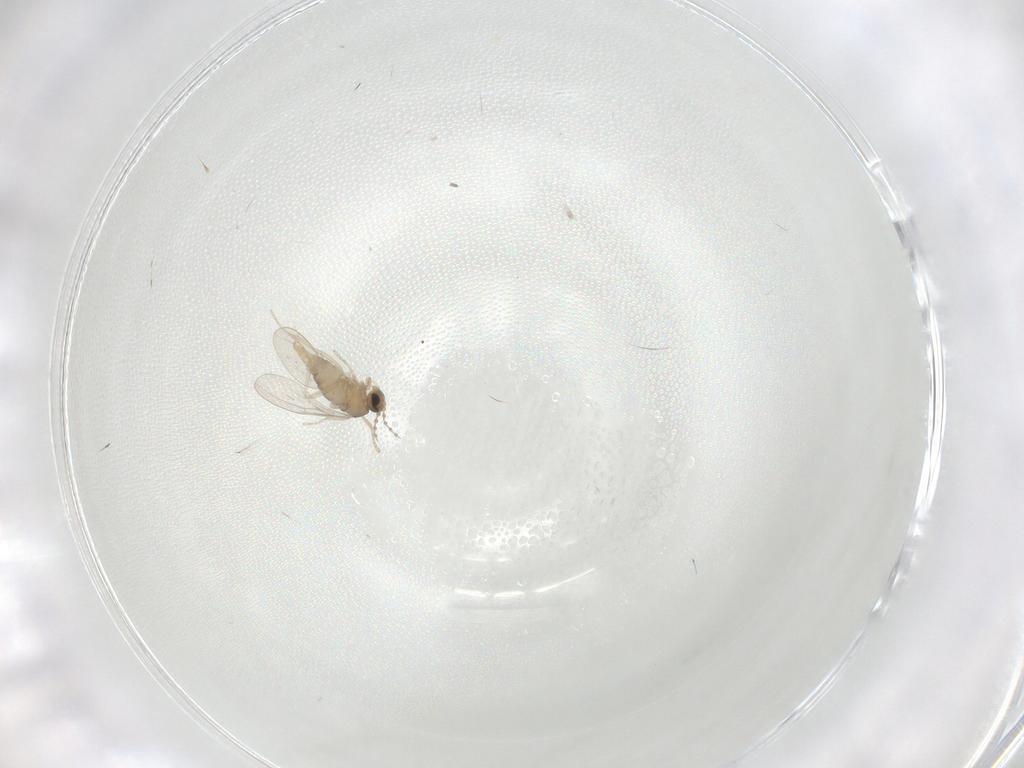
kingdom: Animalia
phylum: Arthropoda
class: Insecta
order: Diptera
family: Cecidomyiidae
